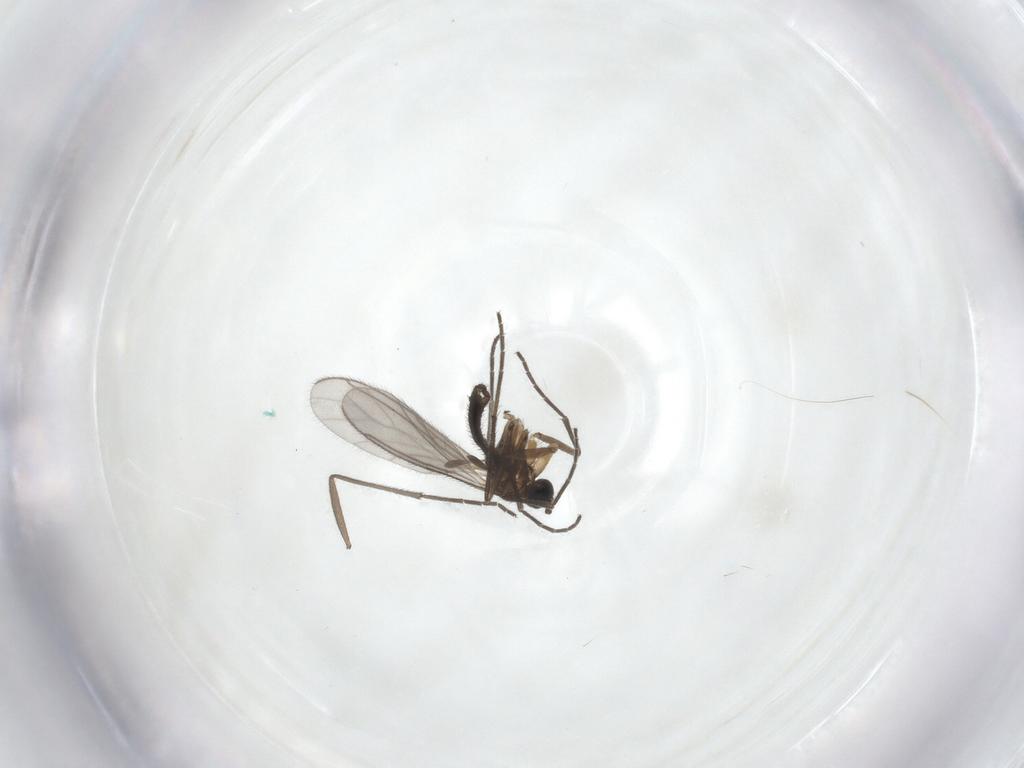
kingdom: Animalia
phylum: Arthropoda
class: Insecta
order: Diptera
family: Sciaridae
